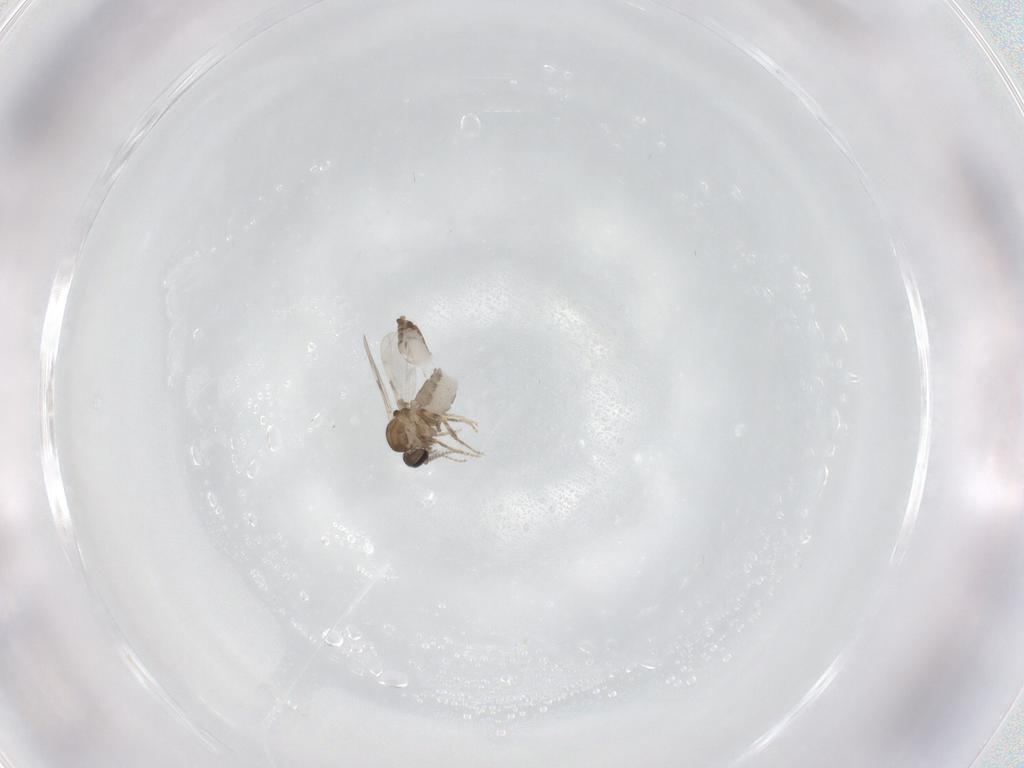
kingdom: Animalia
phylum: Arthropoda
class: Insecta
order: Diptera
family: Ceratopogonidae
